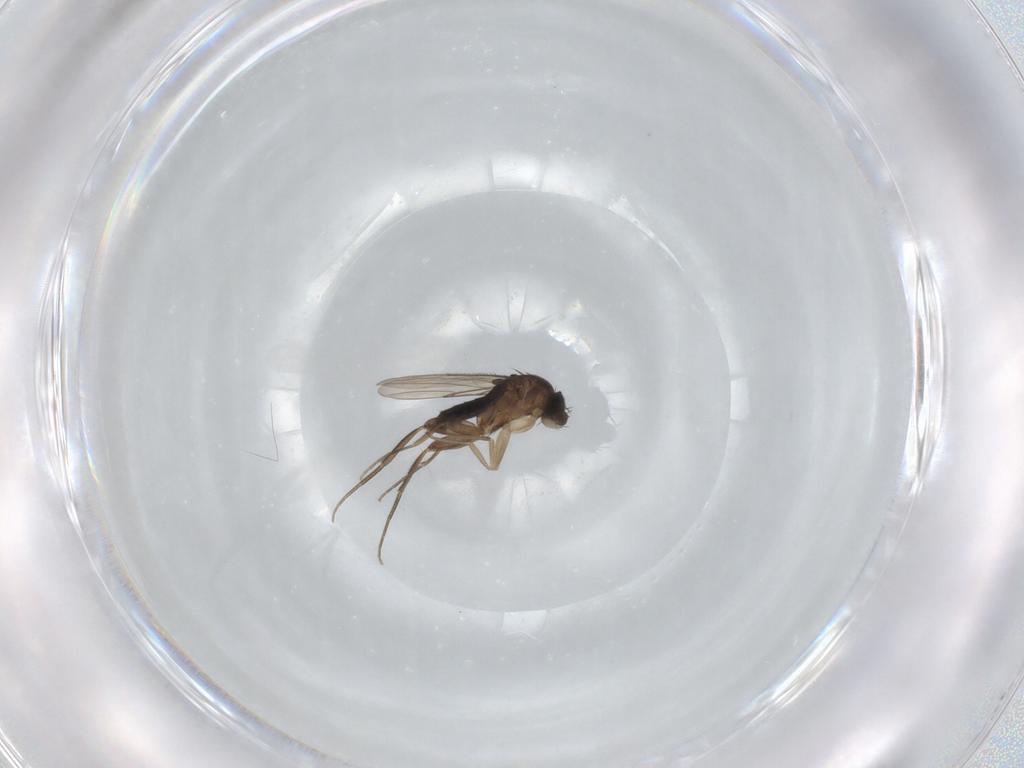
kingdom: Animalia
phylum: Arthropoda
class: Insecta
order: Diptera
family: Phoridae
